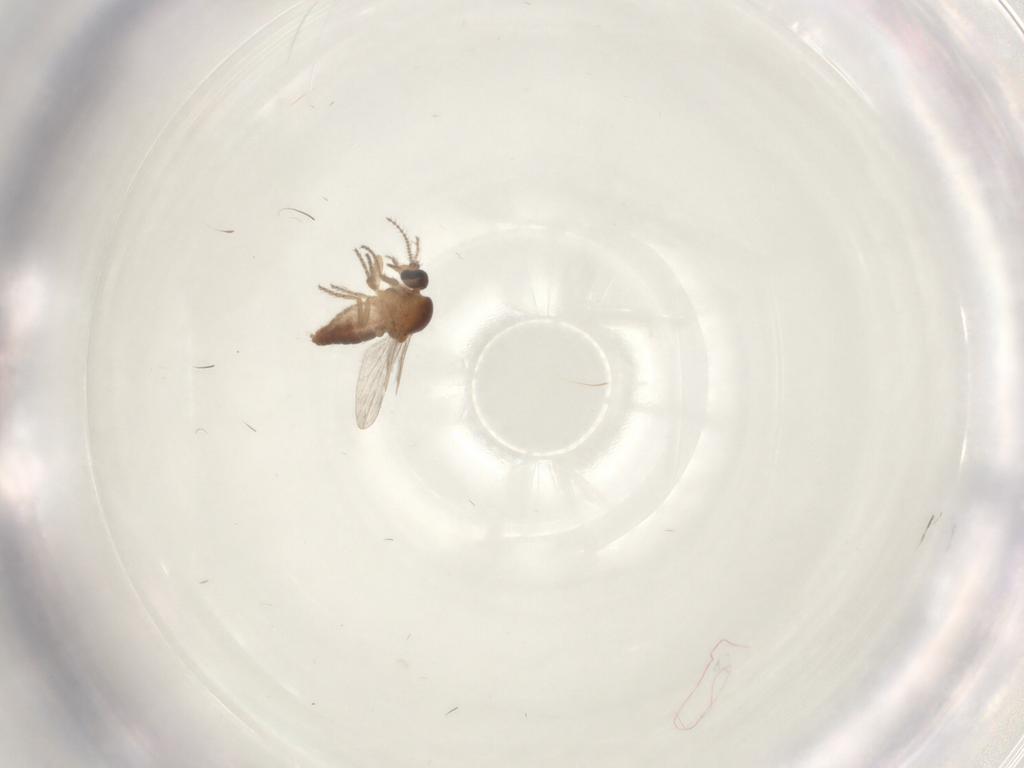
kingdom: Animalia
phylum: Arthropoda
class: Insecta
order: Diptera
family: Ceratopogonidae
